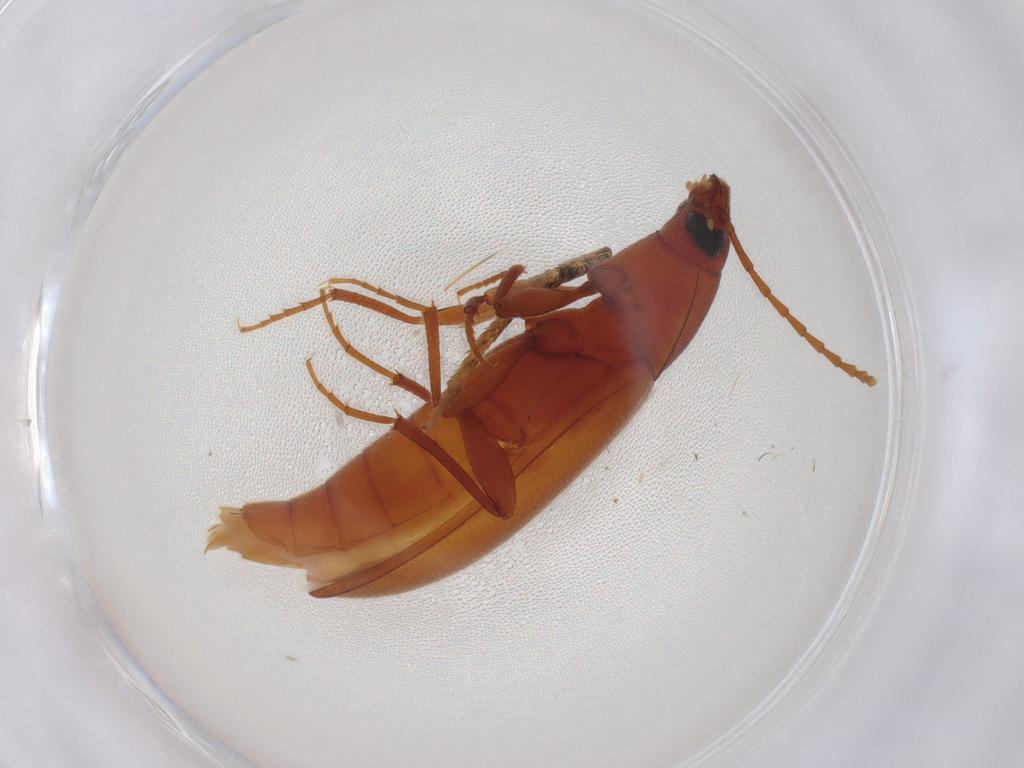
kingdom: Animalia
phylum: Arthropoda
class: Insecta
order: Coleoptera
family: Tenebrionidae
